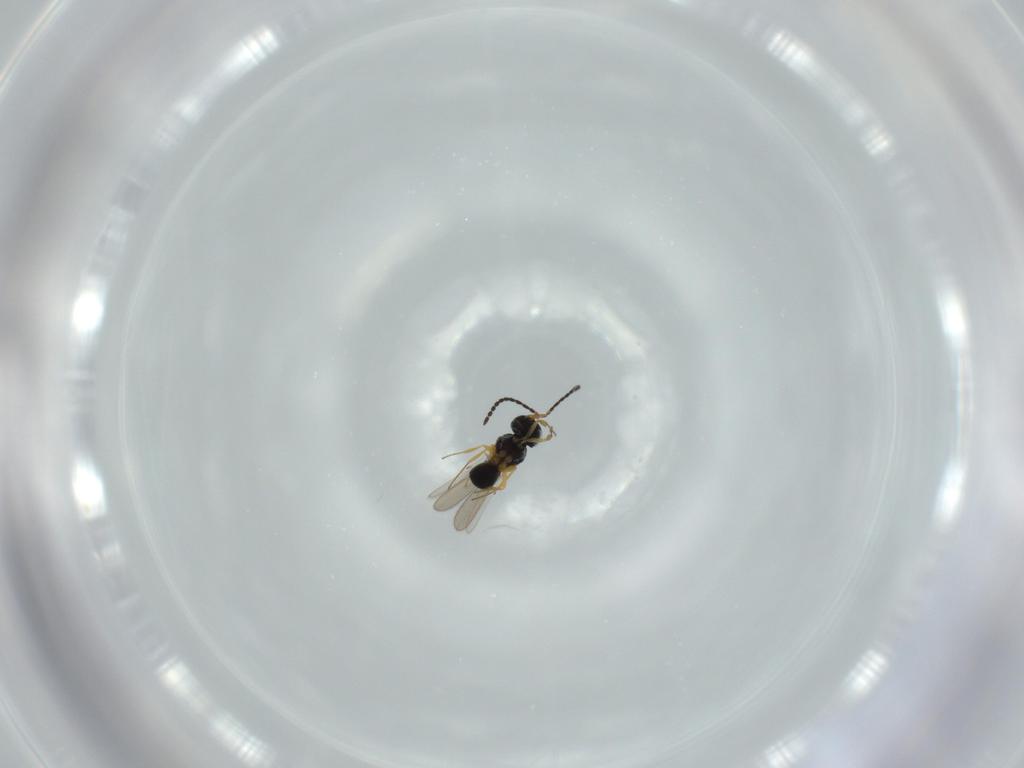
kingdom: Animalia
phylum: Arthropoda
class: Insecta
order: Hymenoptera
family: Scelionidae
